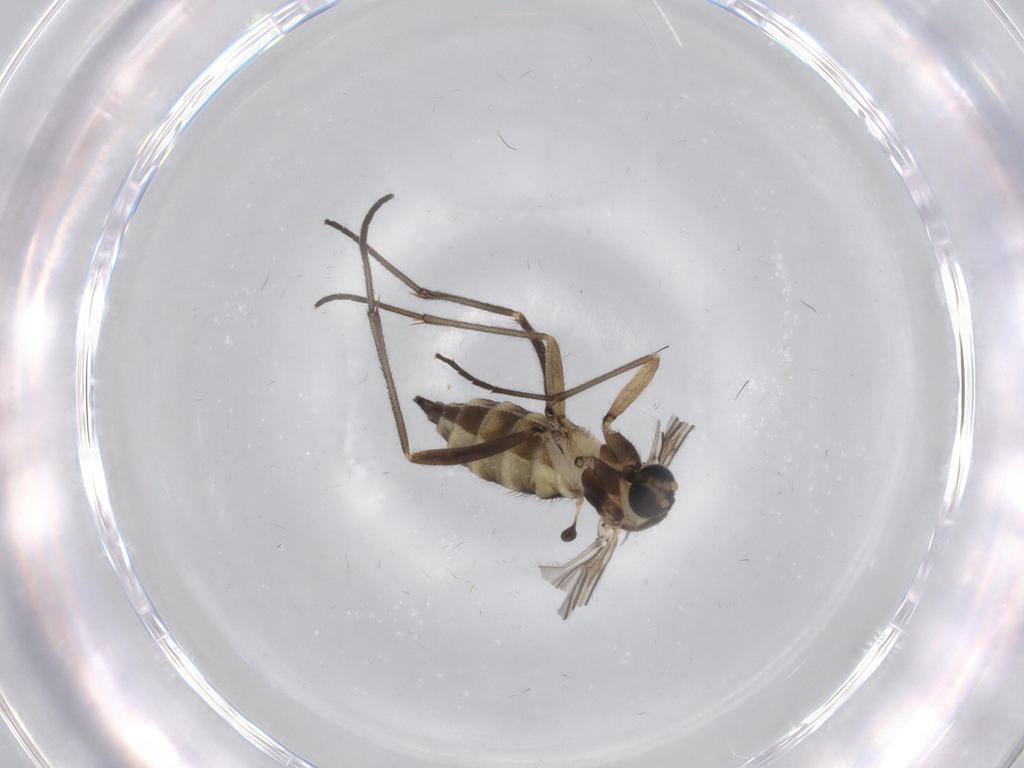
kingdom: Animalia
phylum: Arthropoda
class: Insecta
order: Diptera
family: Sciaridae
